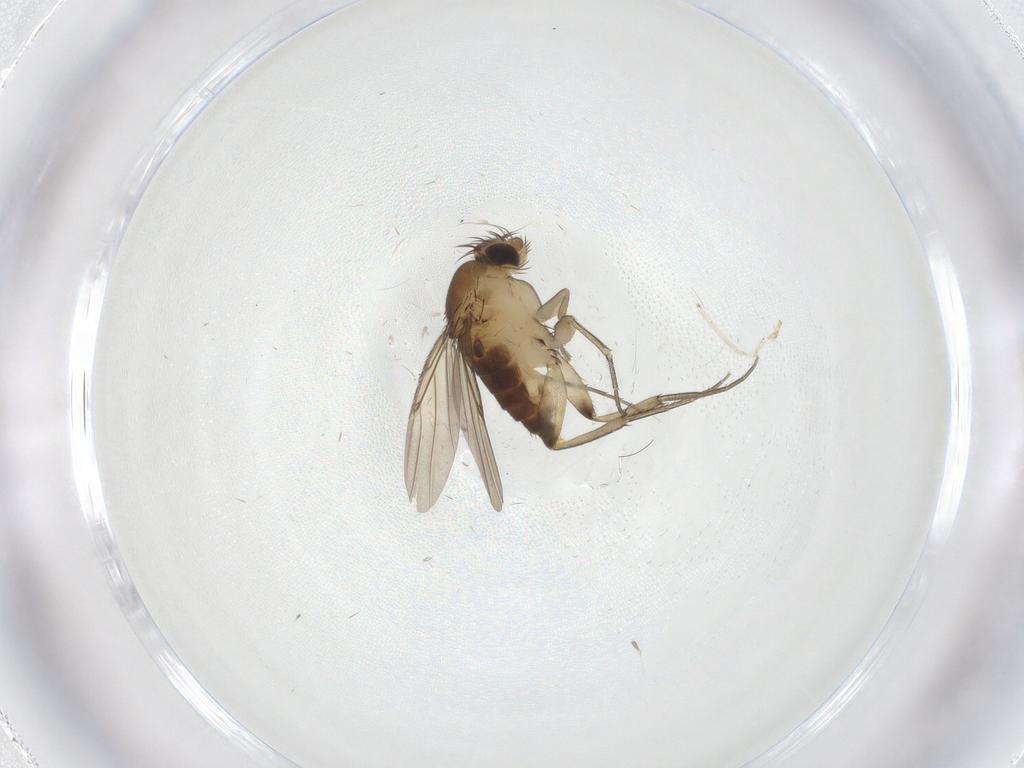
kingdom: Animalia
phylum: Arthropoda
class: Insecta
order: Diptera
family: Phoridae
